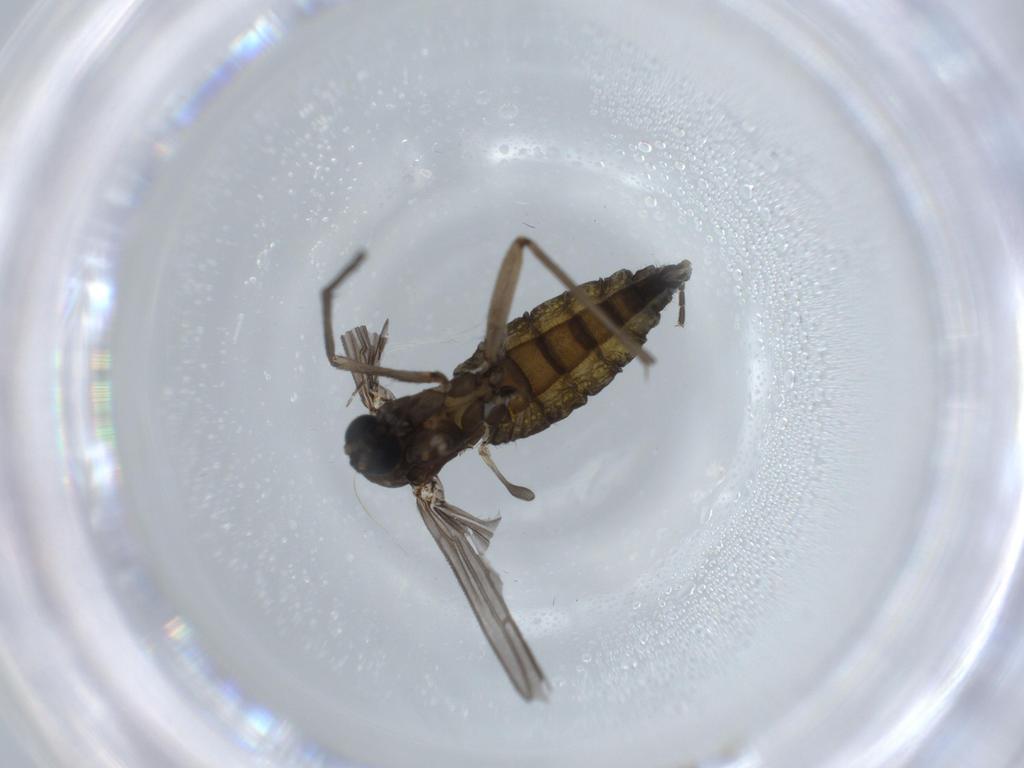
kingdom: Animalia
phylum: Arthropoda
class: Insecta
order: Diptera
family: Sciaridae
